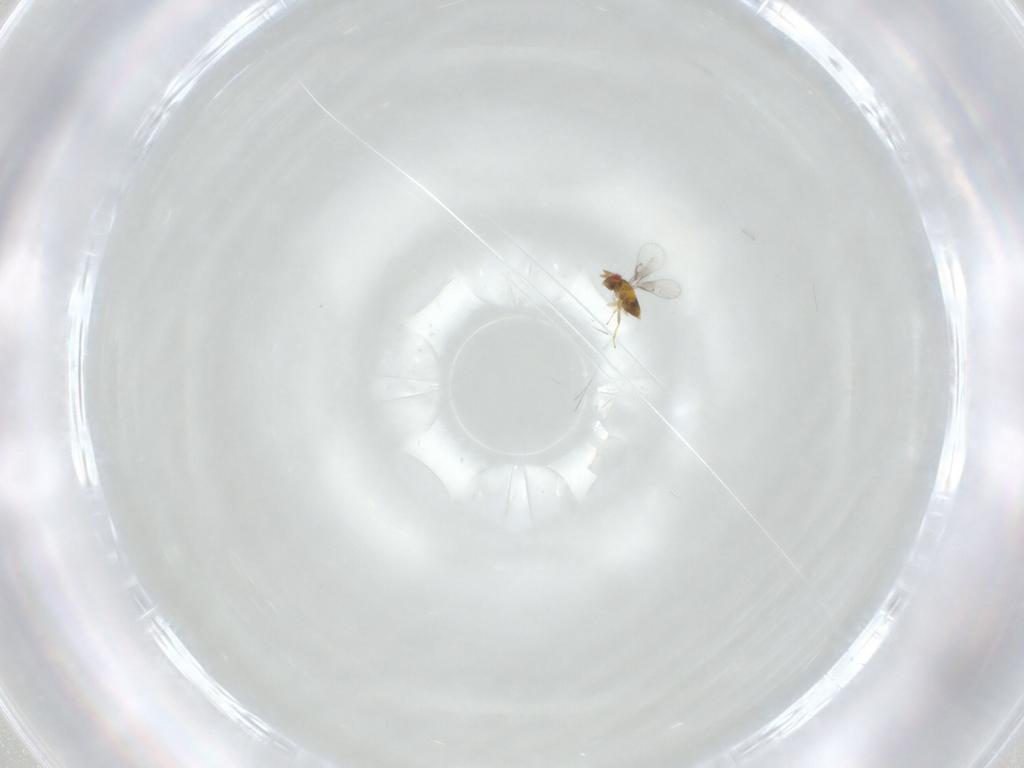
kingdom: Animalia
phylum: Arthropoda
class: Insecta
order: Hymenoptera
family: Trichogrammatidae
